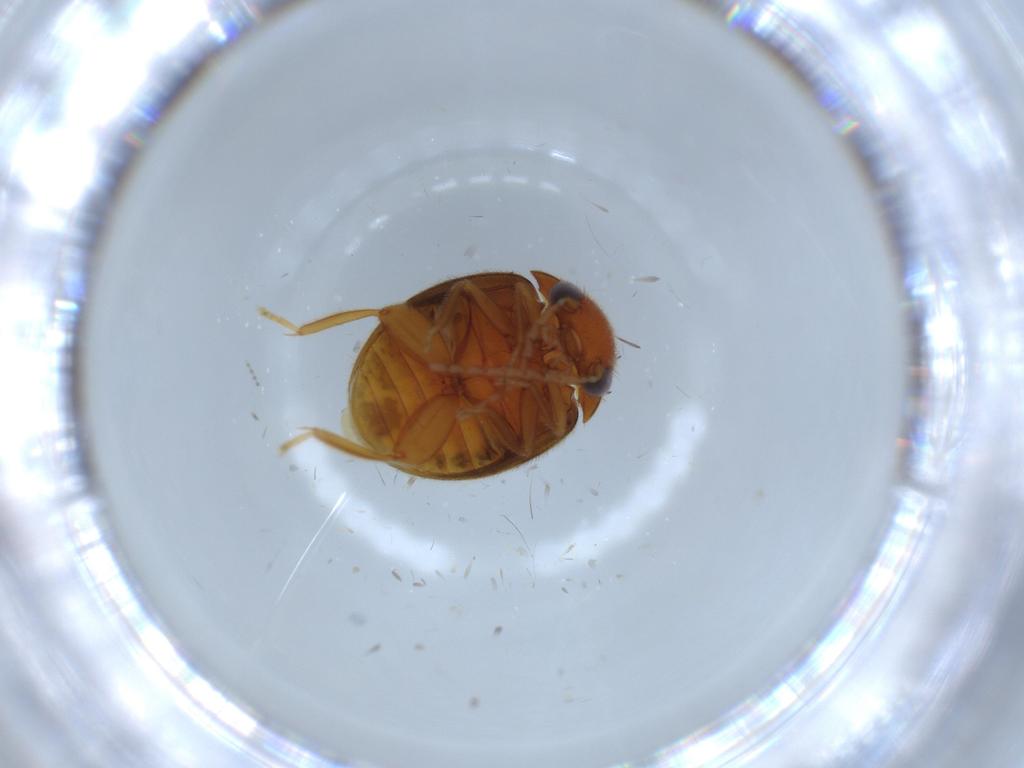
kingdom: Animalia
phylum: Arthropoda
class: Insecta
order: Coleoptera
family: Scirtidae
